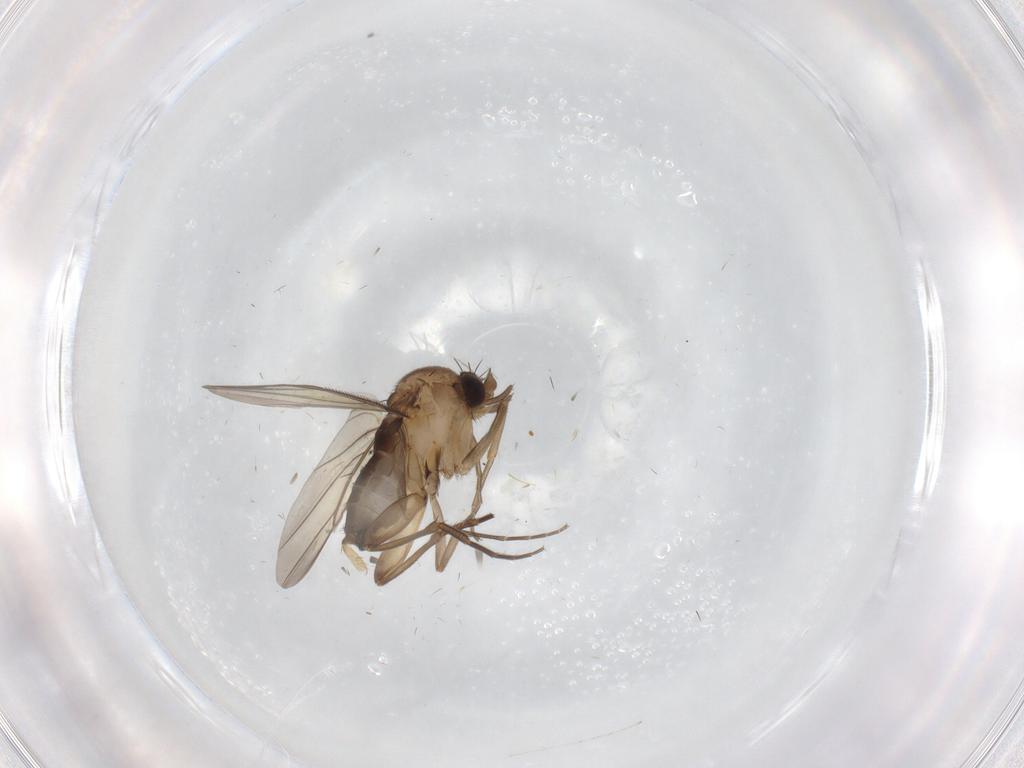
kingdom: Animalia
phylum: Arthropoda
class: Insecta
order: Diptera
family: Phoridae
